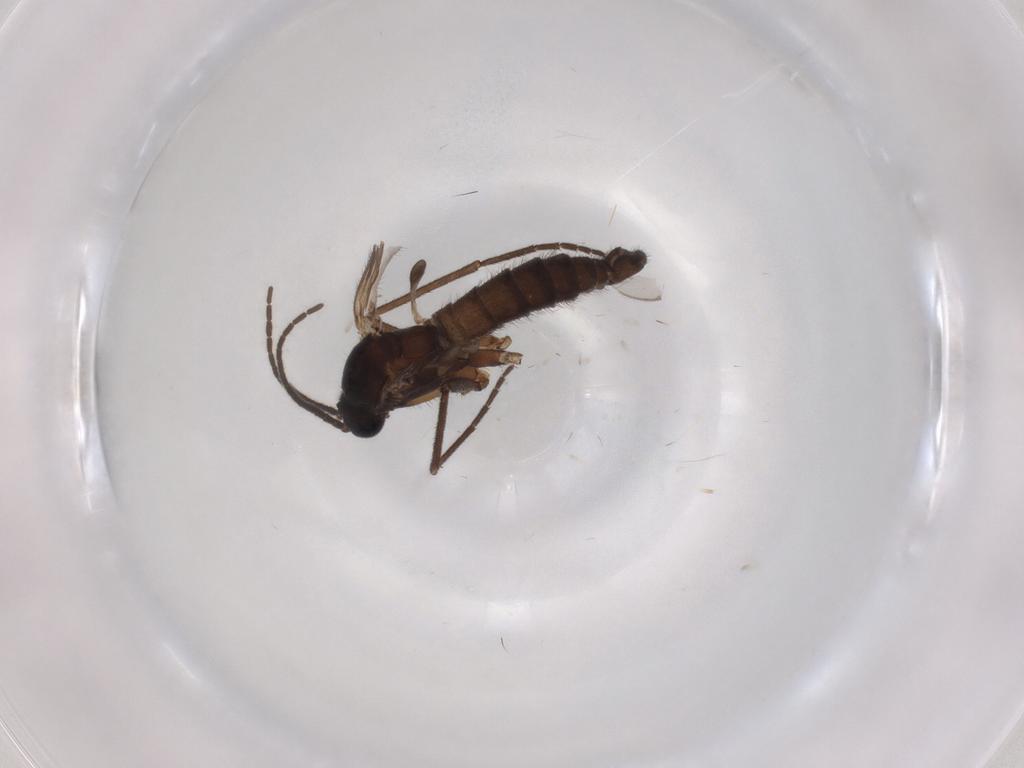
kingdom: Animalia
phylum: Arthropoda
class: Insecta
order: Diptera
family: Sciaridae
